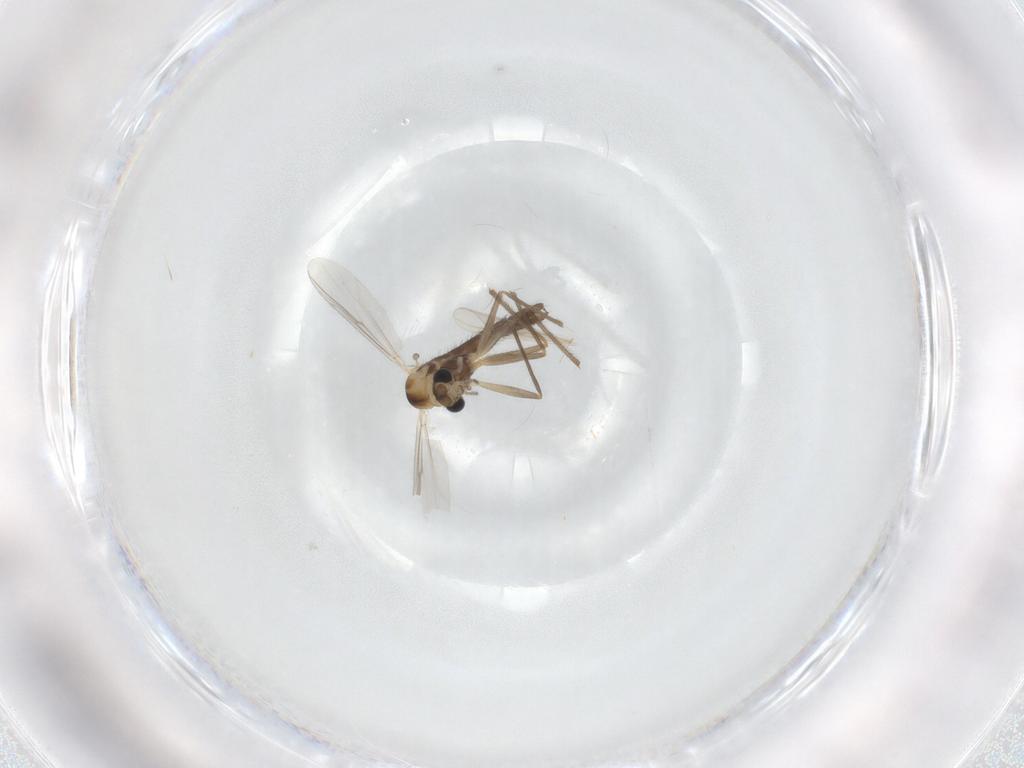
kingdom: Animalia
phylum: Arthropoda
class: Insecta
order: Diptera
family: Chironomidae
